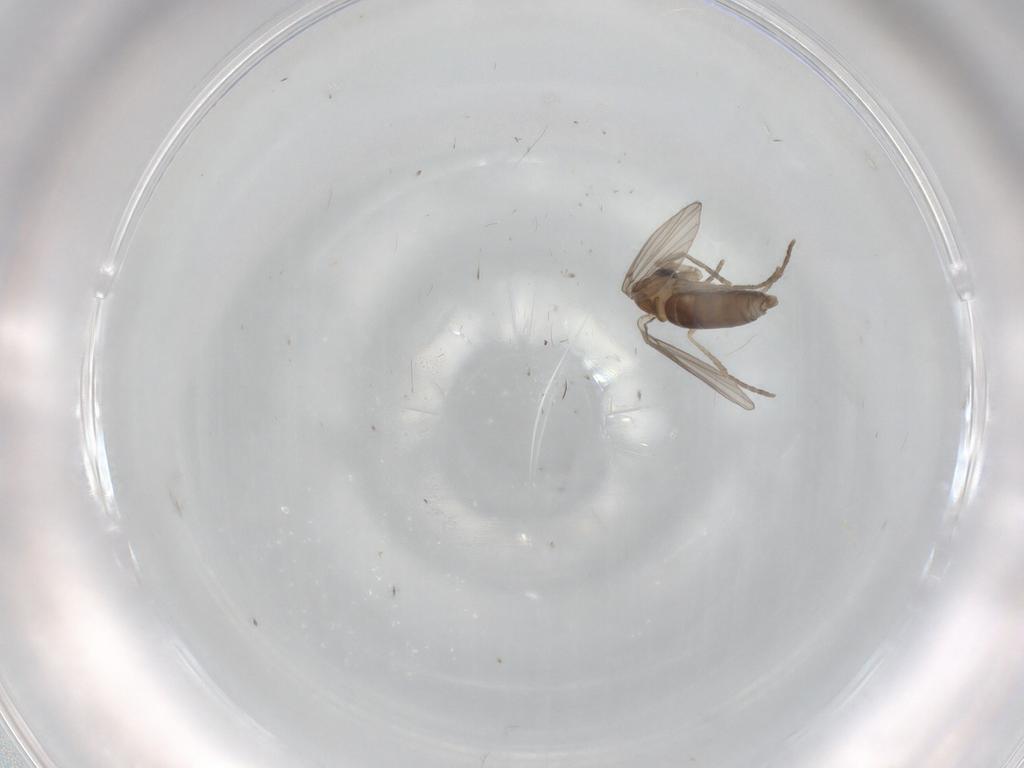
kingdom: Animalia
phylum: Arthropoda
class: Insecta
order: Diptera
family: Psychodidae
